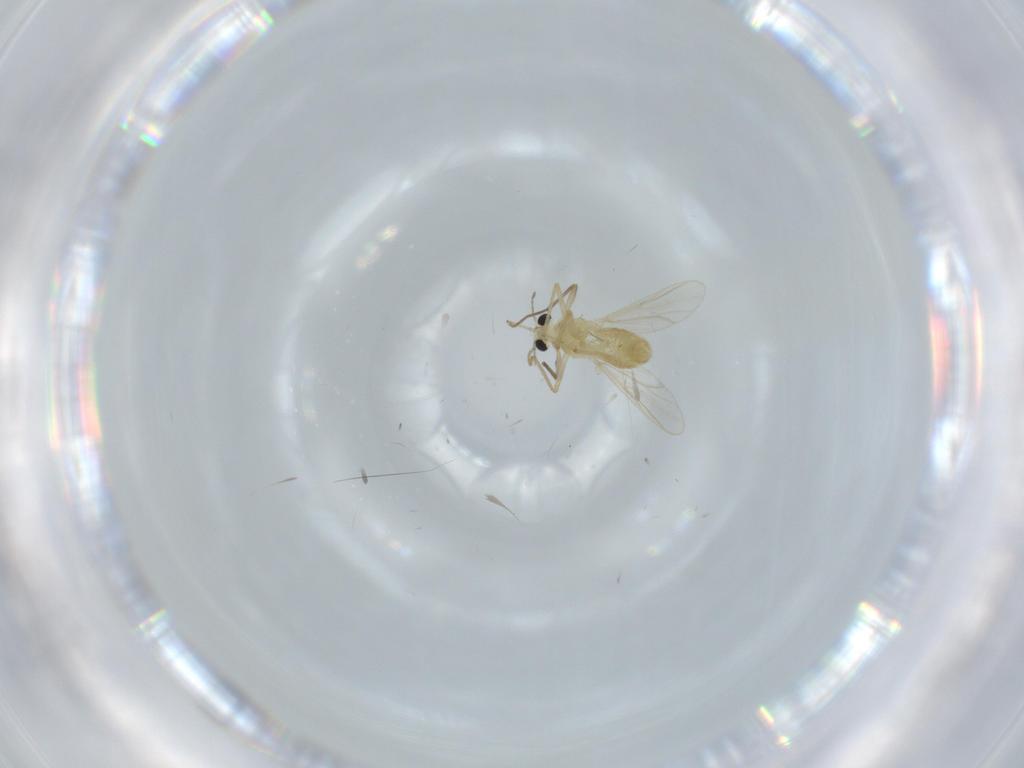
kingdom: Animalia
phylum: Arthropoda
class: Insecta
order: Diptera
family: Chironomidae
